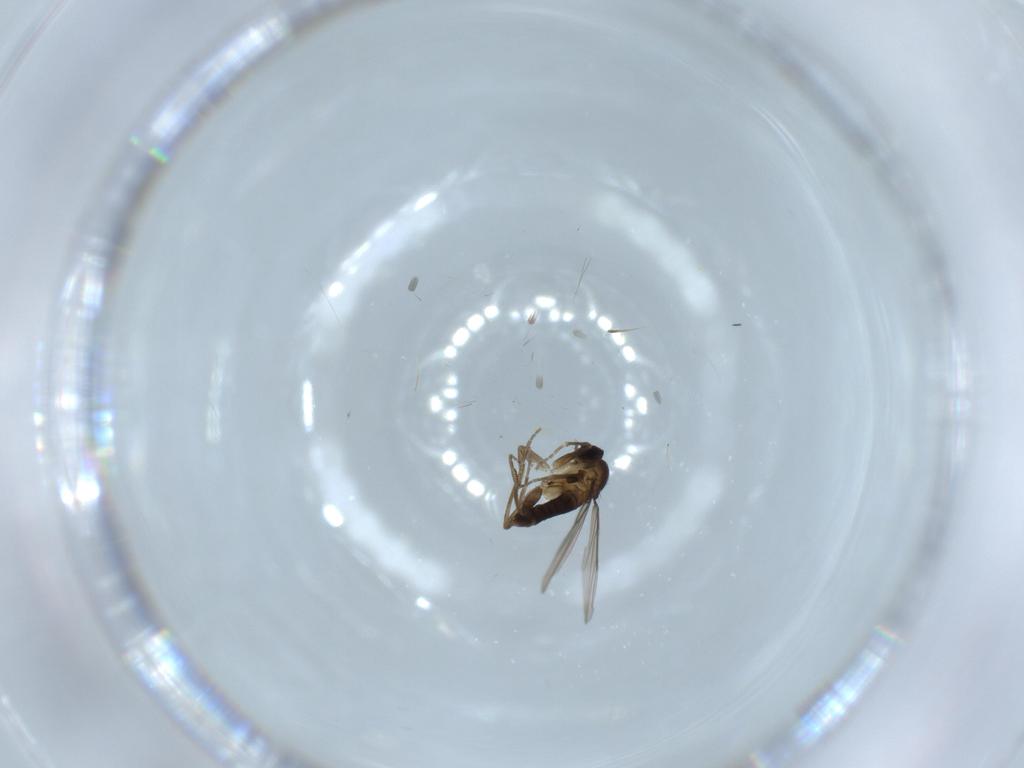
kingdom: Animalia
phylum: Arthropoda
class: Insecta
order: Diptera
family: Phoridae
